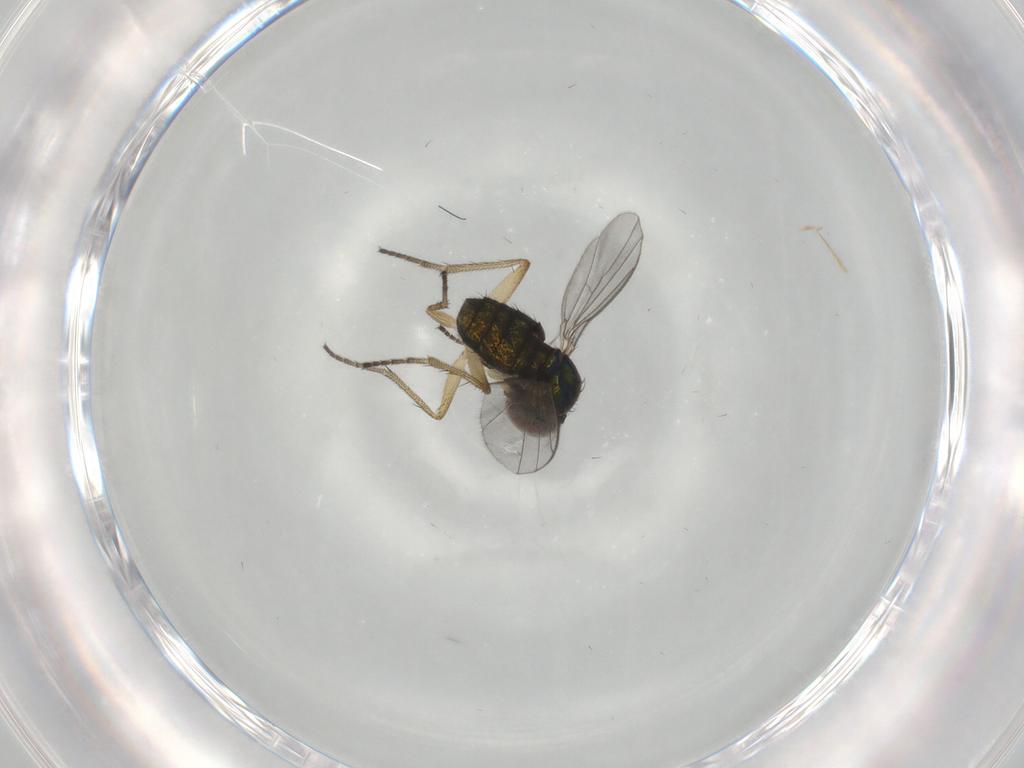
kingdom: Animalia
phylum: Arthropoda
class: Insecta
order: Diptera
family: Dolichopodidae
